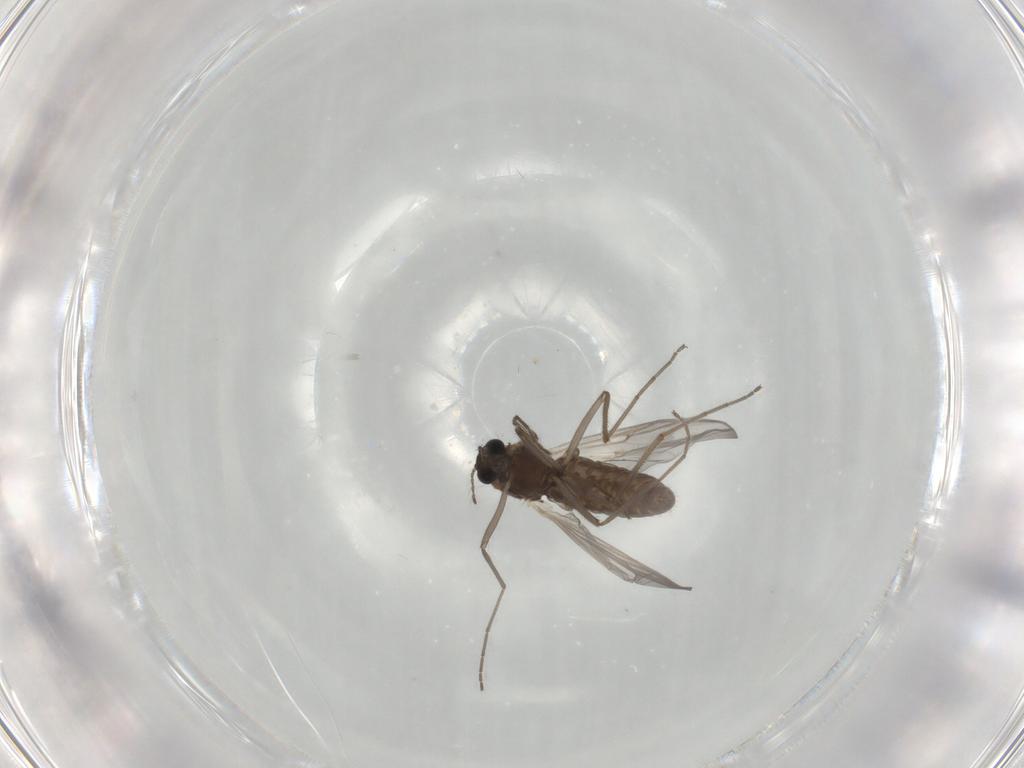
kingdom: Animalia
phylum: Arthropoda
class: Insecta
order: Diptera
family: Chironomidae
